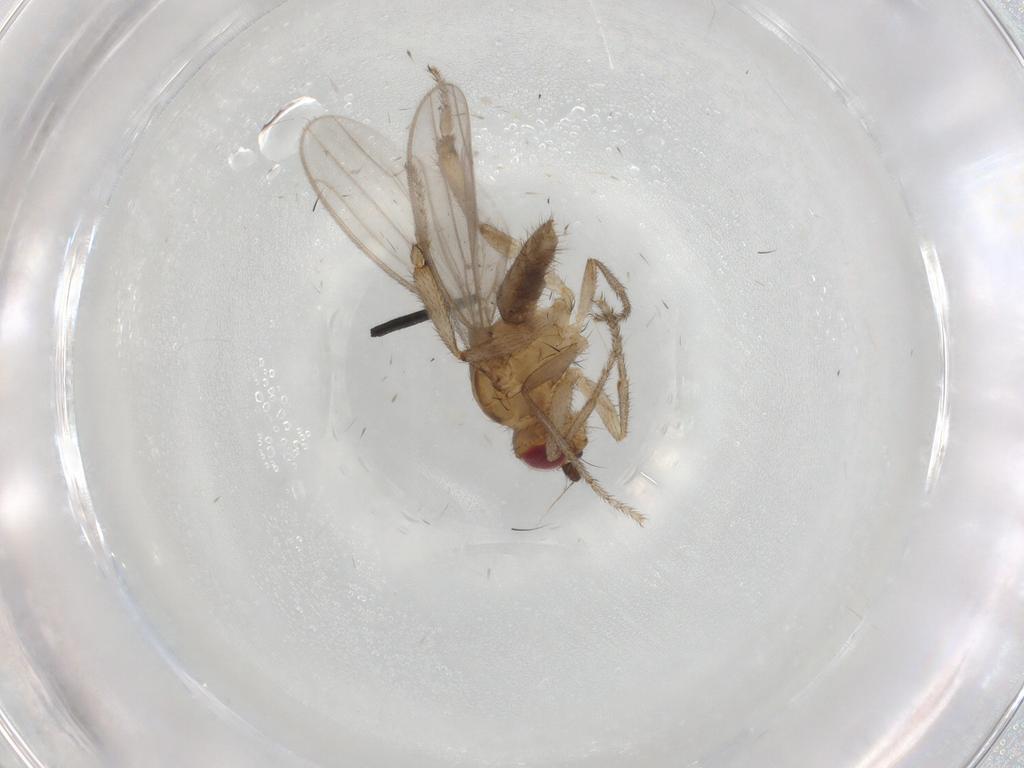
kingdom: Animalia
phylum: Arthropoda
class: Insecta
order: Diptera
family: Sphaeroceridae
